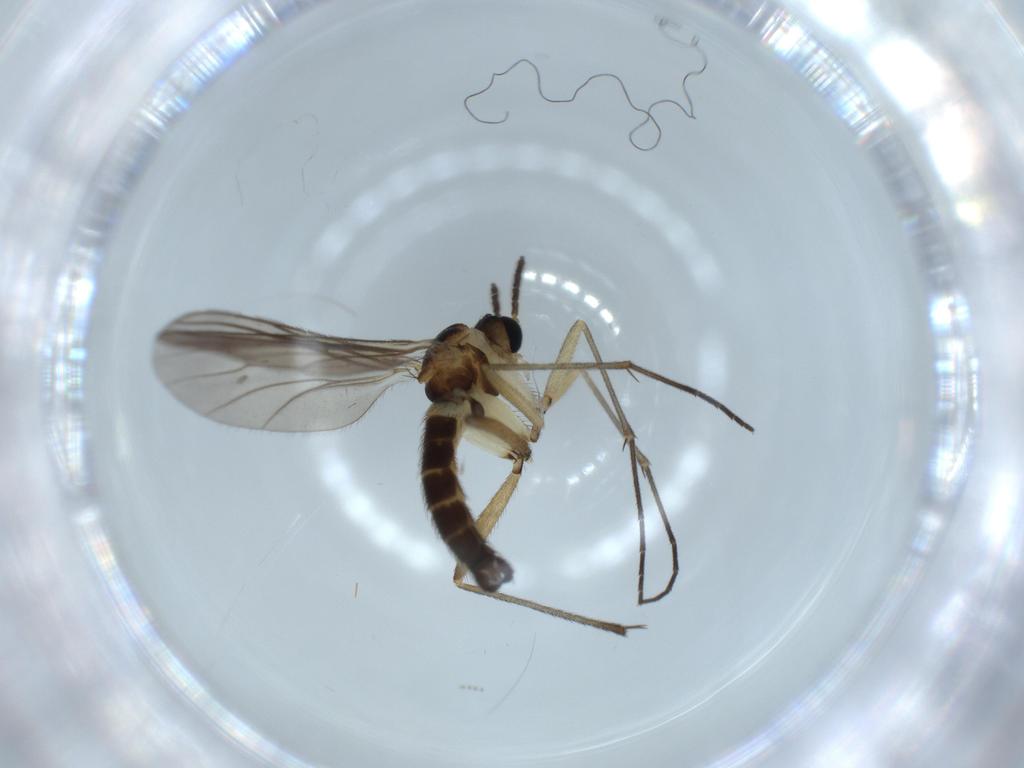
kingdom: Animalia
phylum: Arthropoda
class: Insecta
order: Diptera
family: Sciaridae
